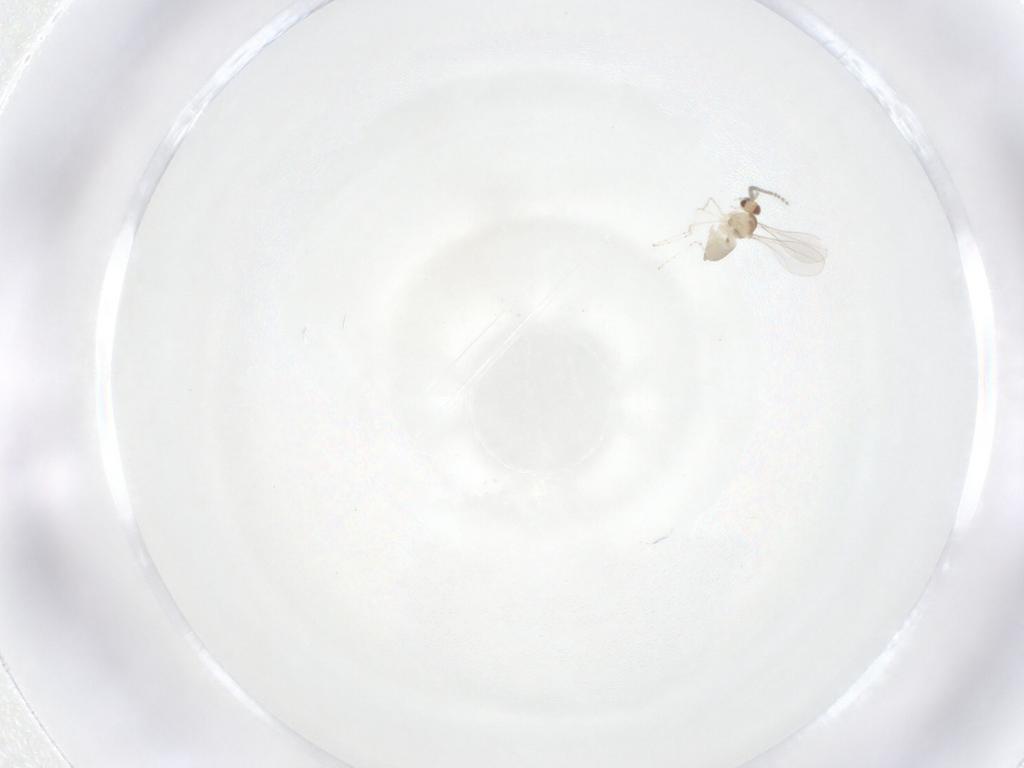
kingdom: Animalia
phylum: Arthropoda
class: Insecta
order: Diptera
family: Cecidomyiidae
